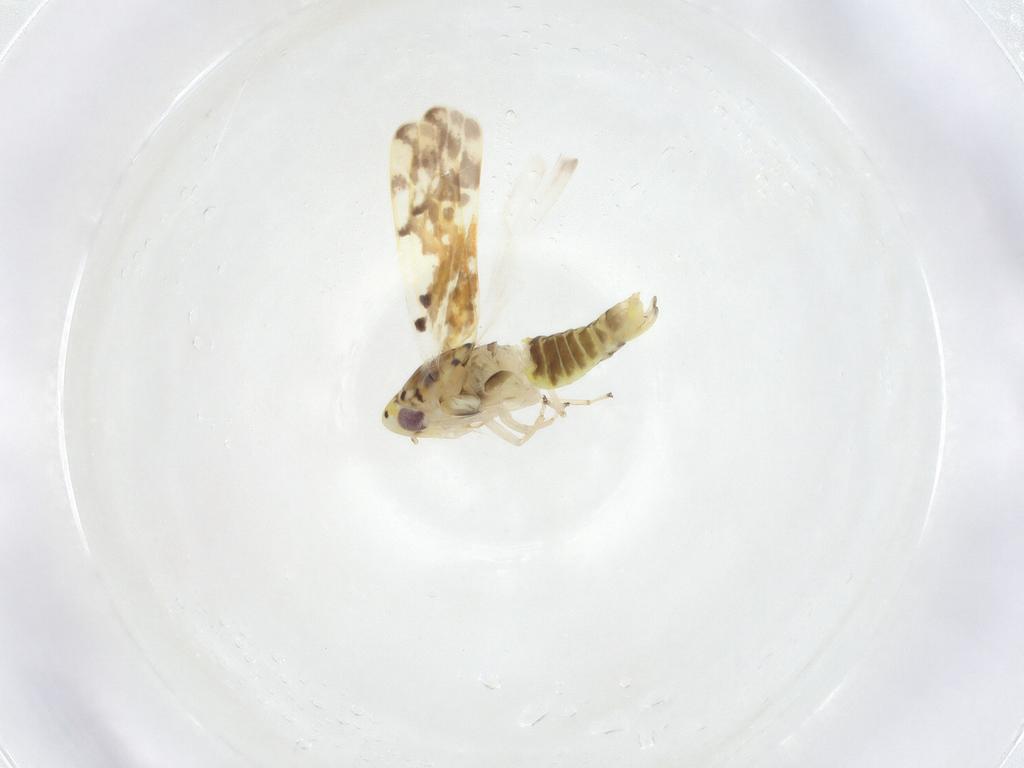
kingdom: Animalia
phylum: Arthropoda
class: Insecta
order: Hemiptera
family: Cicadellidae
